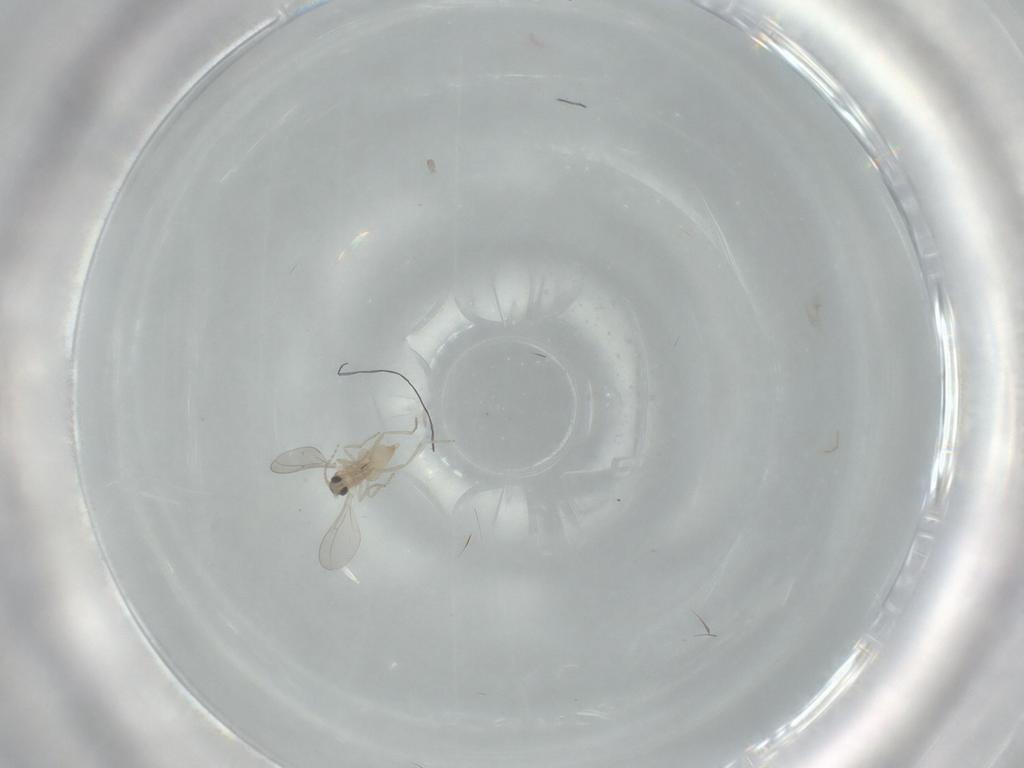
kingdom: Animalia
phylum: Arthropoda
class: Insecta
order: Diptera
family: Cecidomyiidae
